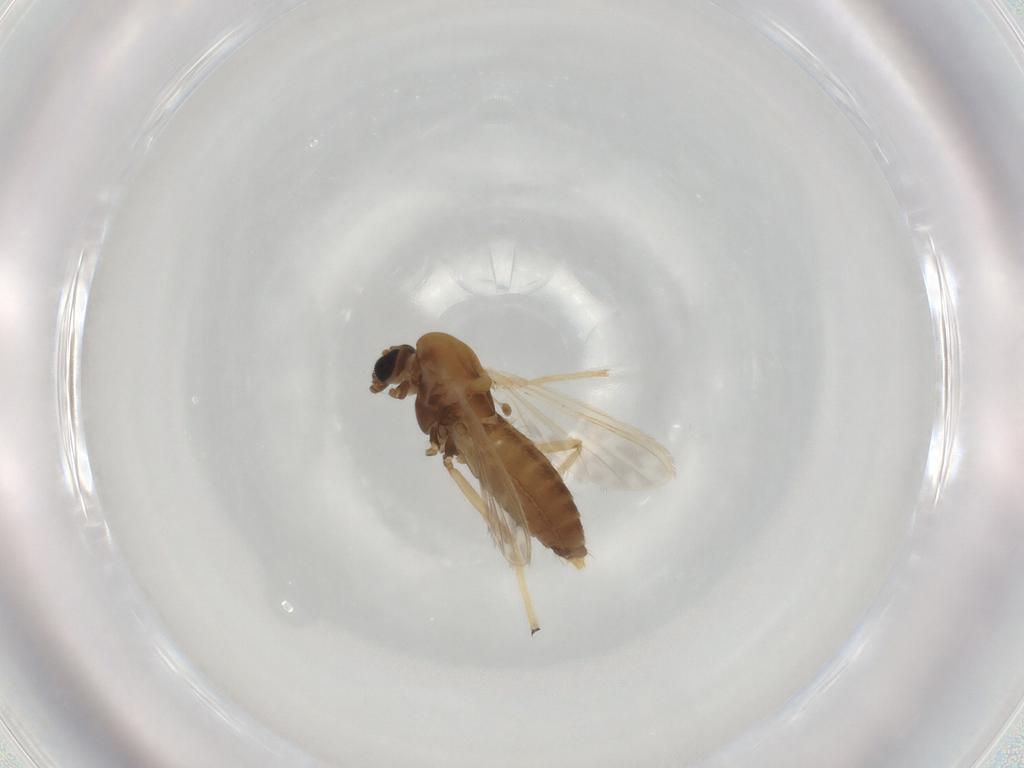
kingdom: Animalia
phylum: Arthropoda
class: Insecta
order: Diptera
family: Chironomidae
